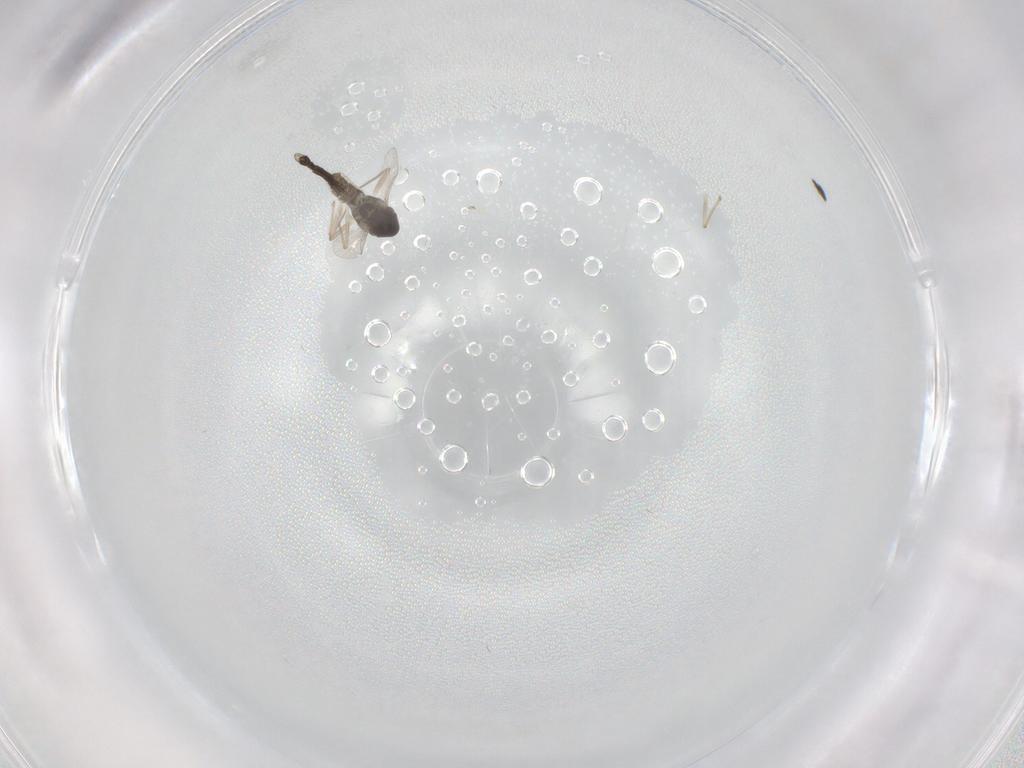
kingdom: Animalia
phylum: Arthropoda
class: Insecta
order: Diptera
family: Chironomidae
